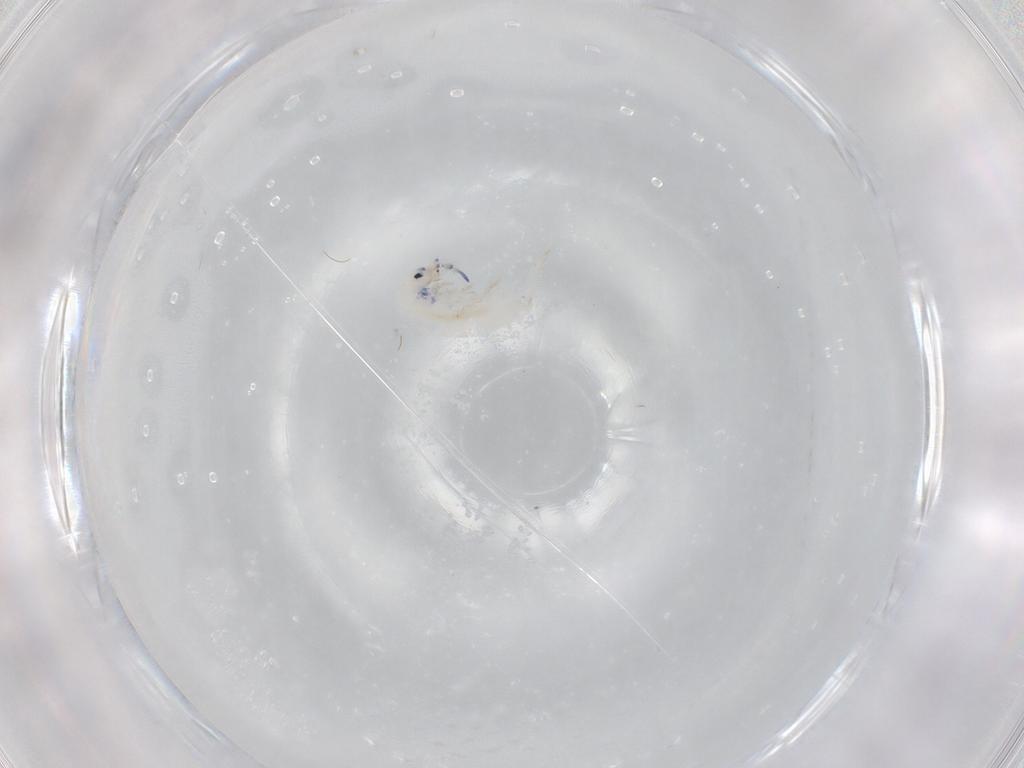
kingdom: Animalia
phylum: Arthropoda
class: Collembola
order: Entomobryomorpha
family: Entomobryidae
